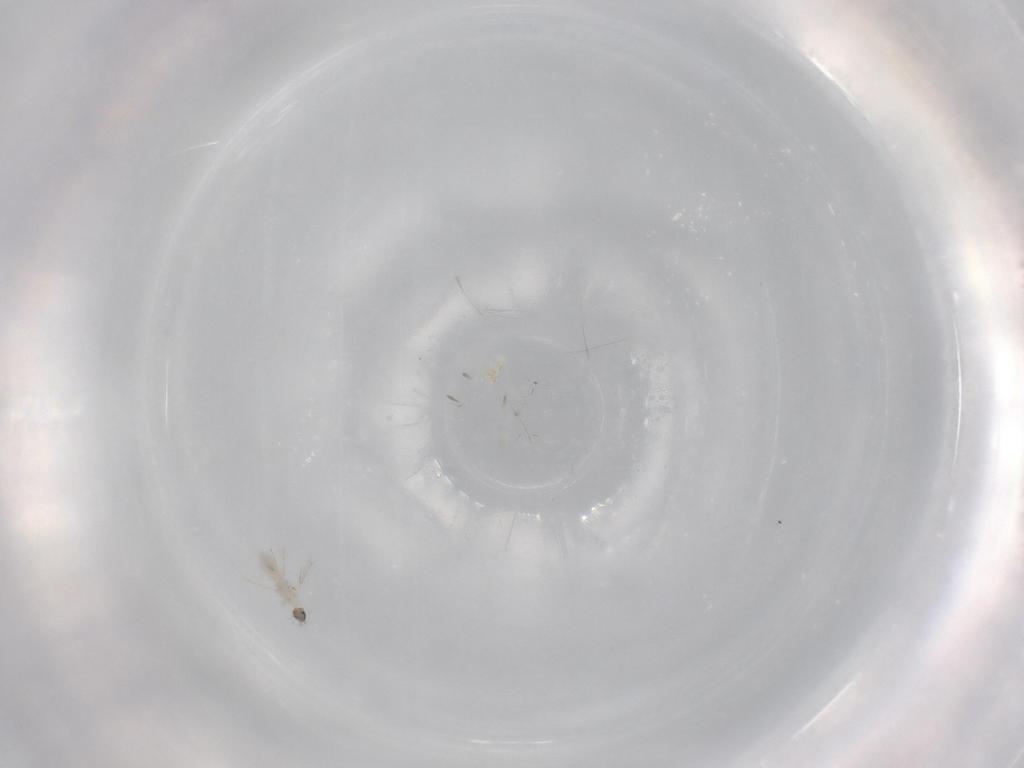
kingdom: Animalia
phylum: Arthropoda
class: Insecta
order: Diptera
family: Cecidomyiidae
